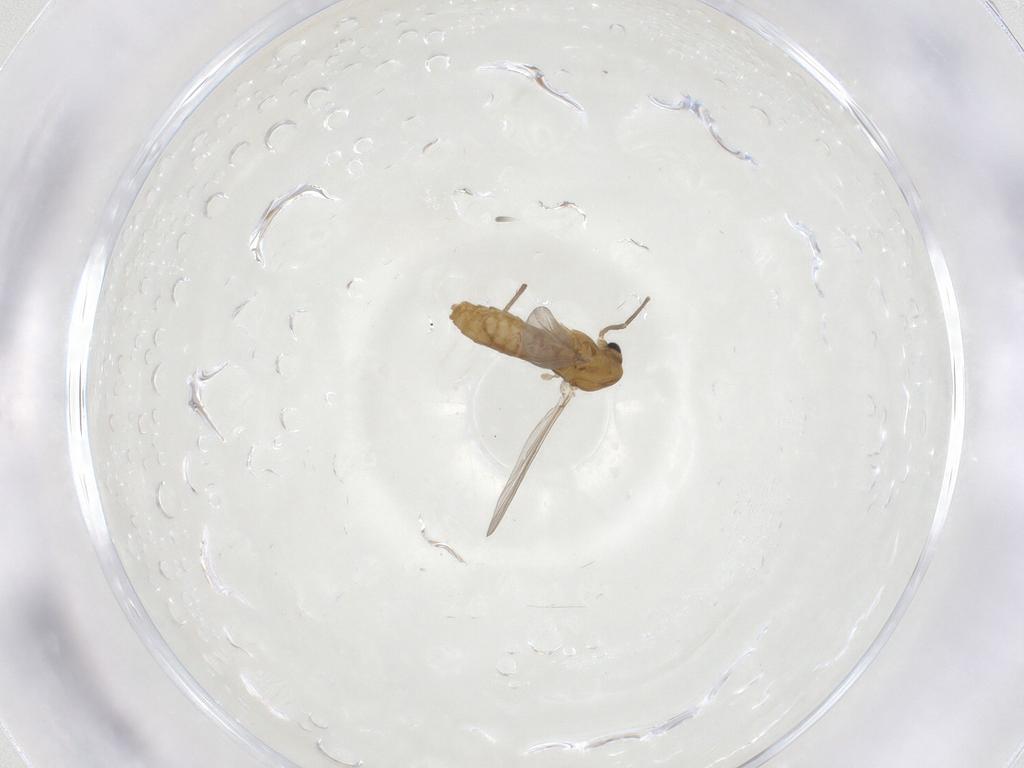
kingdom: Animalia
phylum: Arthropoda
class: Insecta
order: Diptera
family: Chironomidae
